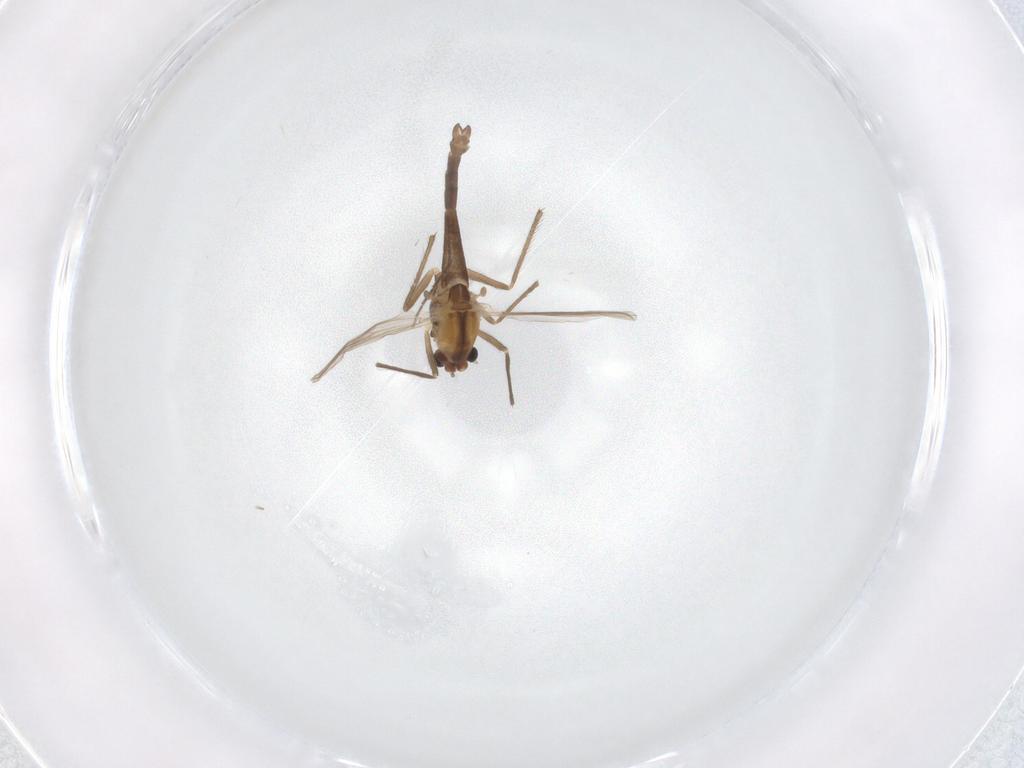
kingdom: Animalia
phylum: Arthropoda
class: Insecta
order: Diptera
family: Chironomidae
